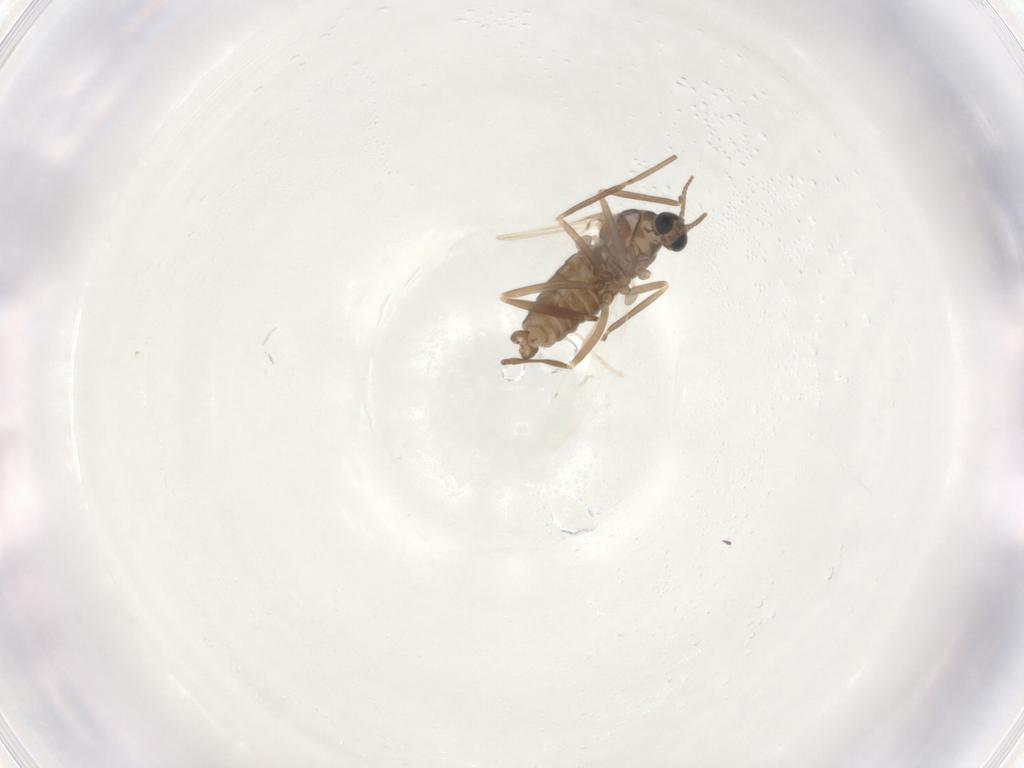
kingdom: Animalia
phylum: Arthropoda
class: Insecta
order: Diptera
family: Cecidomyiidae
